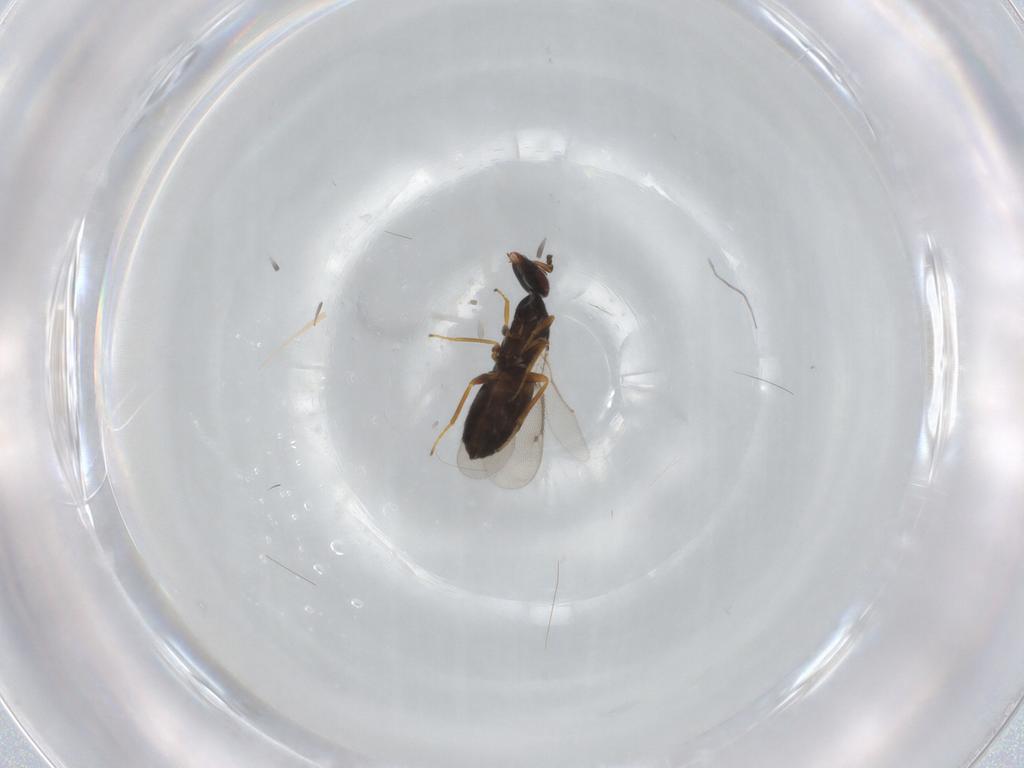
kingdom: Animalia
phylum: Arthropoda
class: Insecta
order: Hymenoptera
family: Eulophidae
